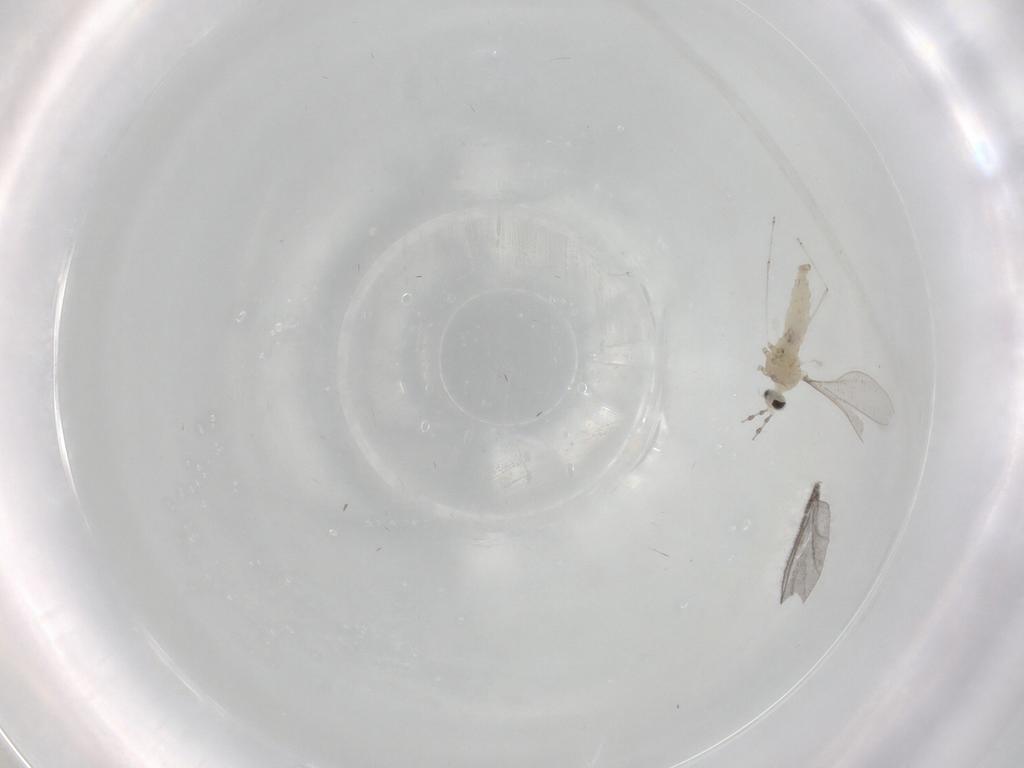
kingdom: Animalia
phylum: Arthropoda
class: Insecta
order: Diptera
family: Cecidomyiidae
